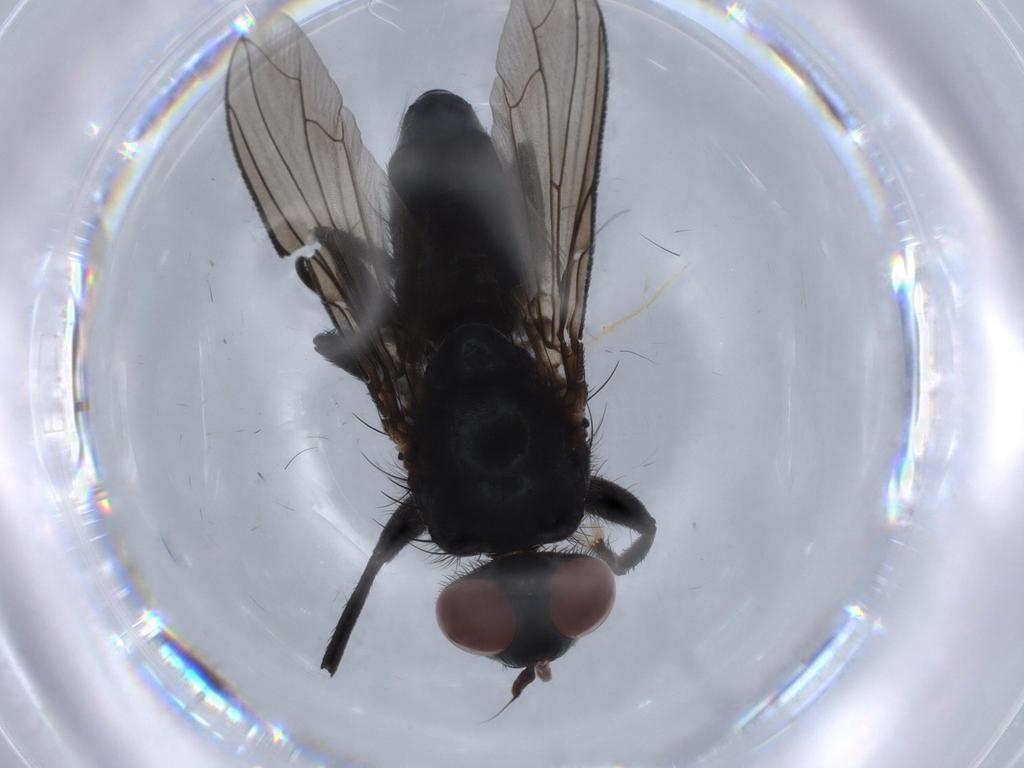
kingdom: Animalia
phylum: Arthropoda
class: Insecta
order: Diptera
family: Sarcophagidae
